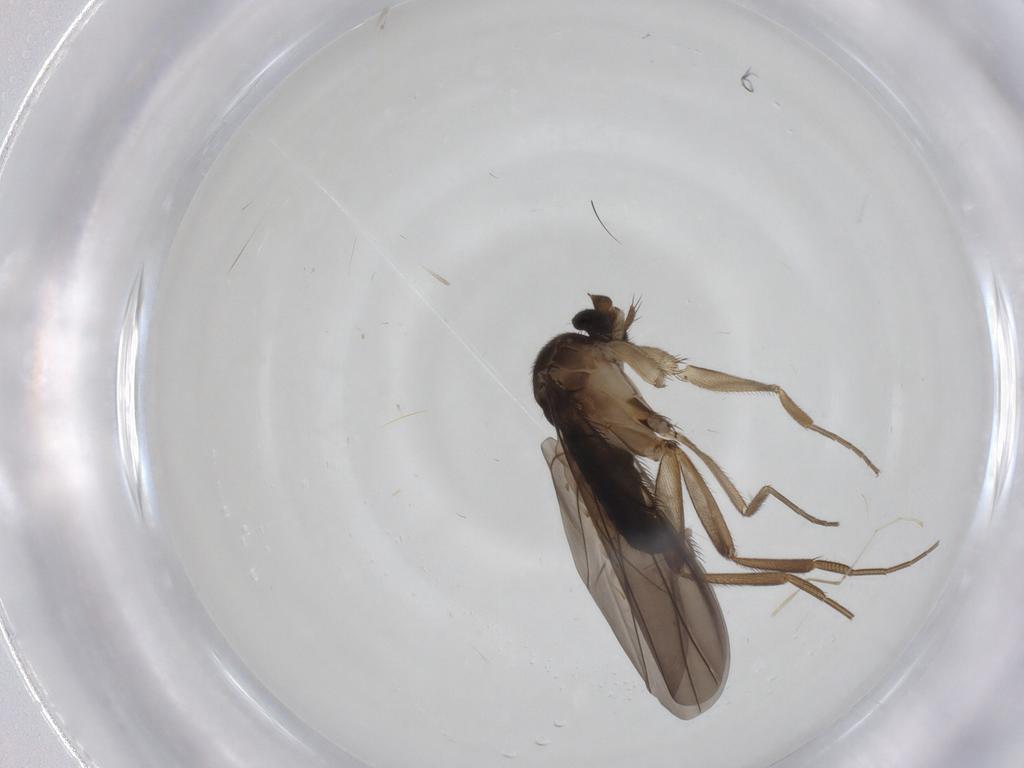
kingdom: Animalia
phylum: Arthropoda
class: Insecta
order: Diptera
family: Phoridae
